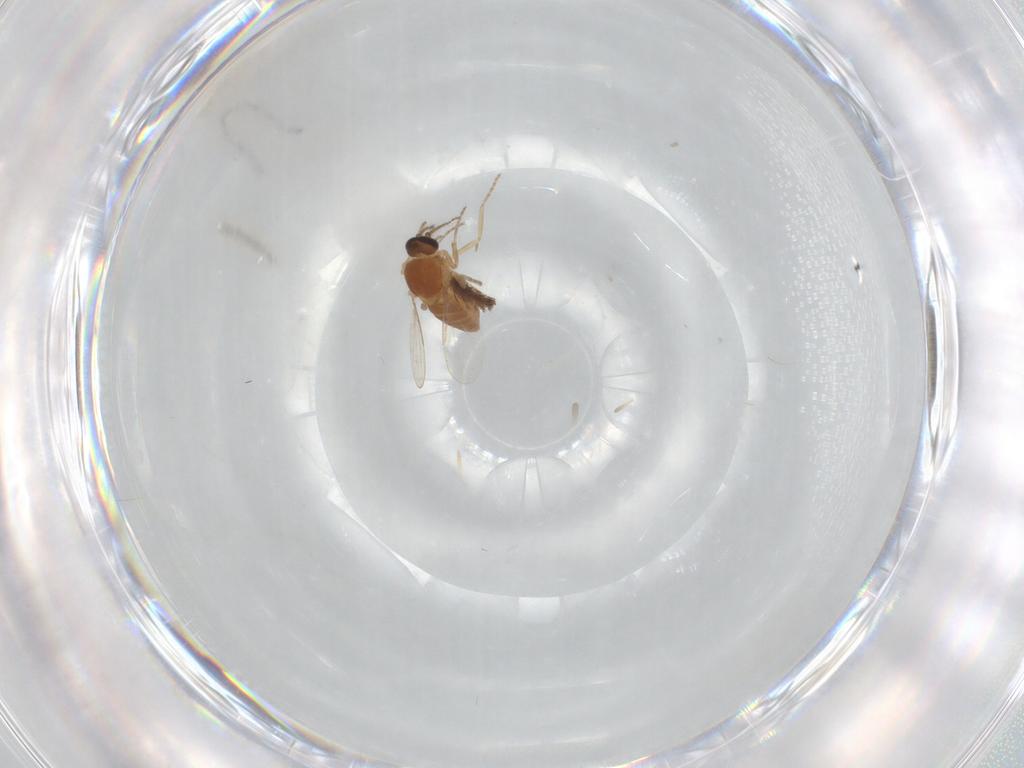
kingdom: Animalia
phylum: Arthropoda
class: Insecta
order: Diptera
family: Ceratopogonidae
